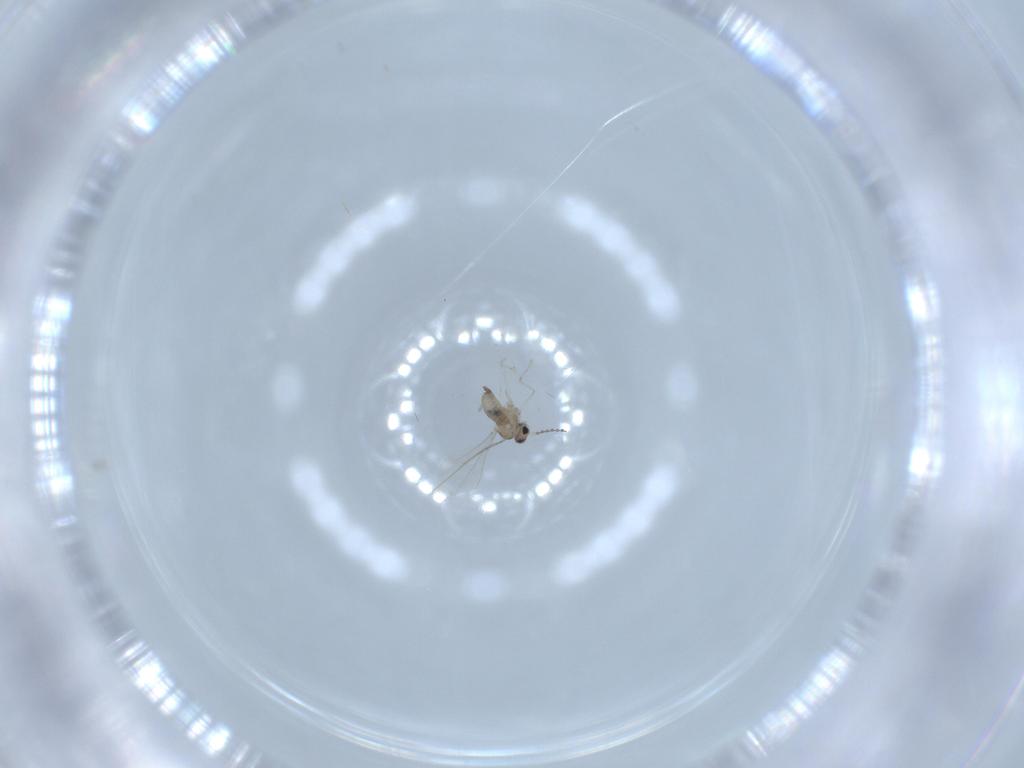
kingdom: Animalia
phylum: Arthropoda
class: Insecta
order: Diptera
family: Cecidomyiidae
